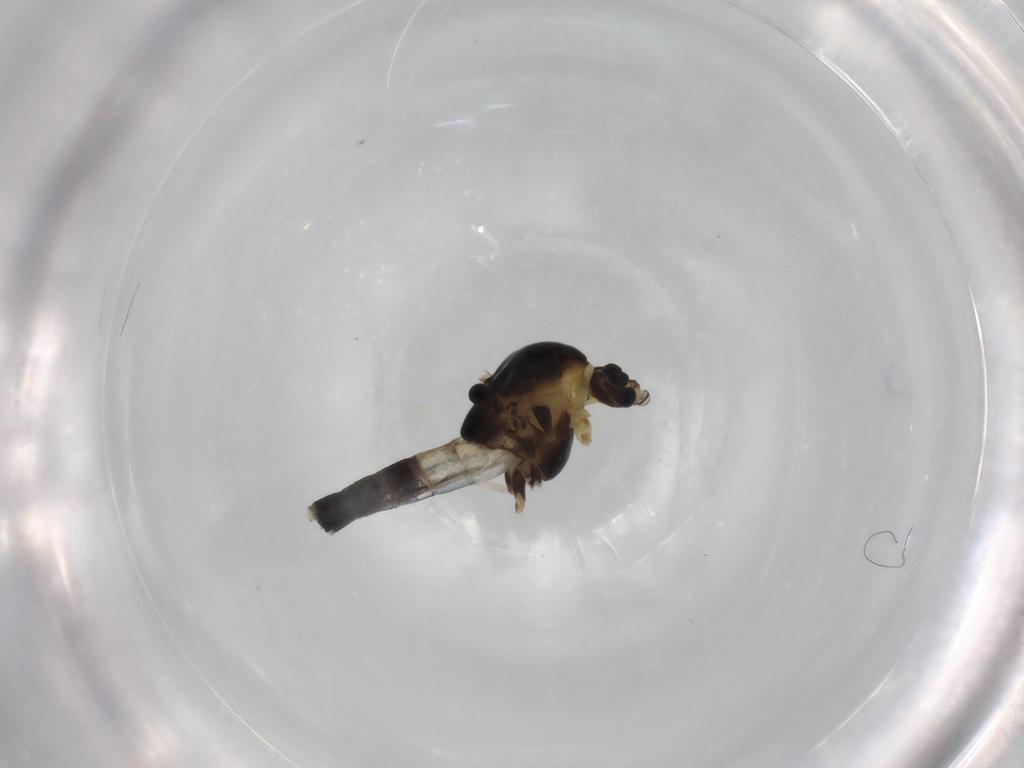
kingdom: Animalia
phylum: Arthropoda
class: Insecta
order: Diptera
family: Chironomidae
